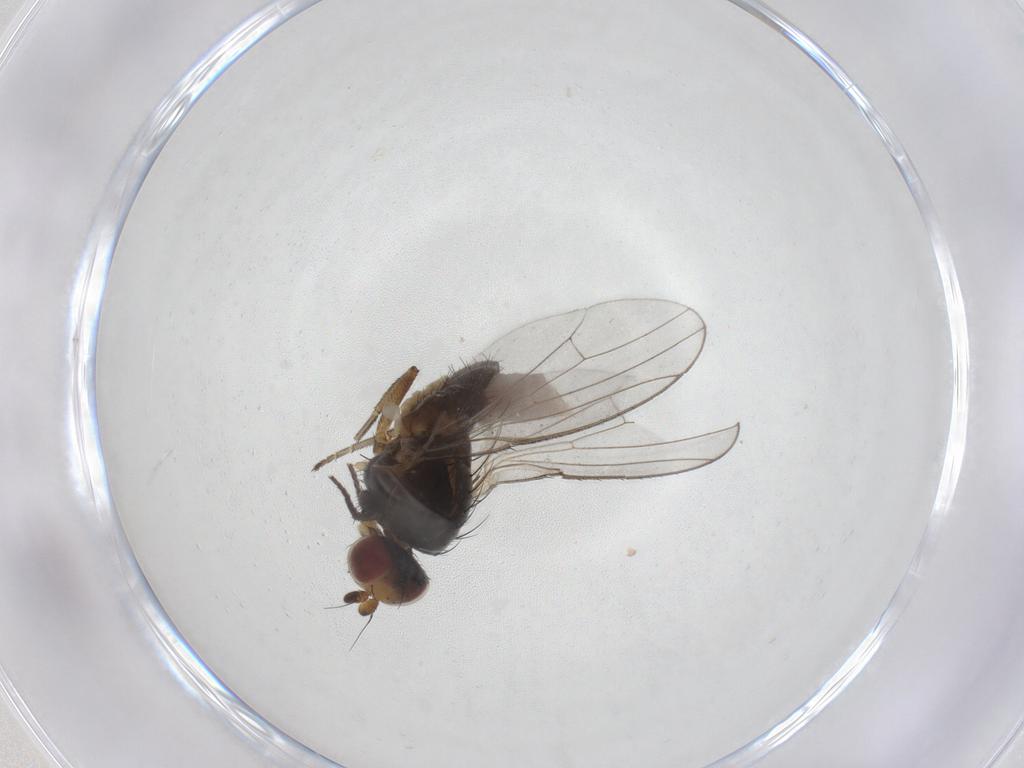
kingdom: Animalia
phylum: Arthropoda
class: Insecta
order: Diptera
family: Heleomyzidae
